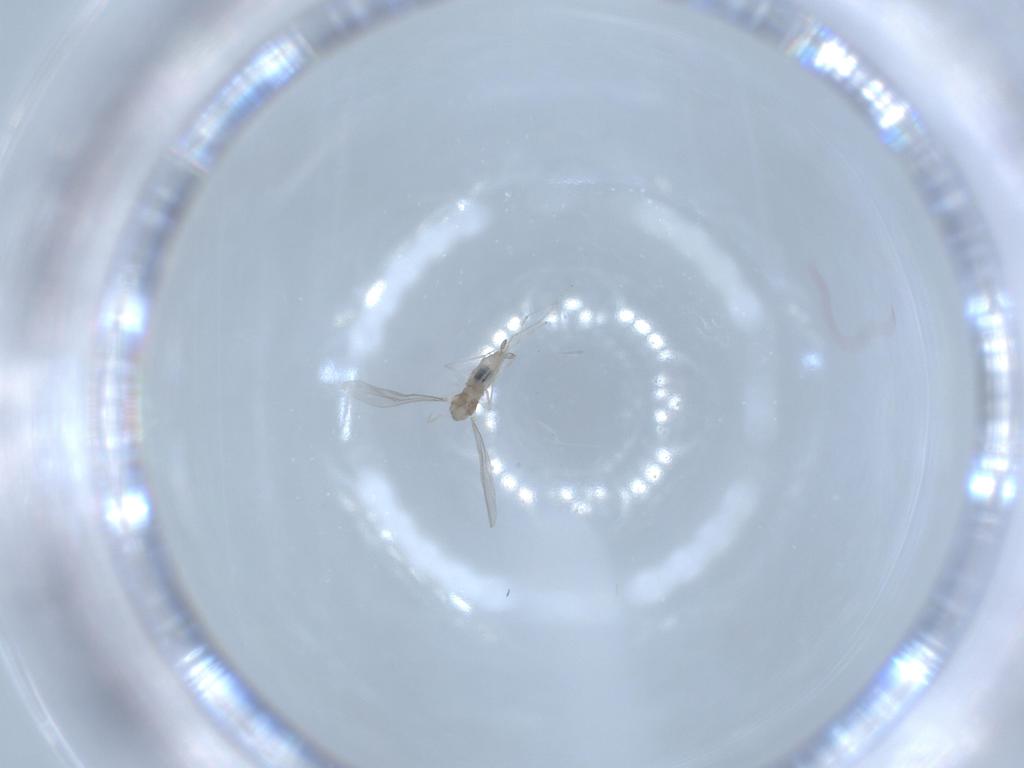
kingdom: Animalia
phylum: Arthropoda
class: Insecta
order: Diptera
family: Cecidomyiidae
